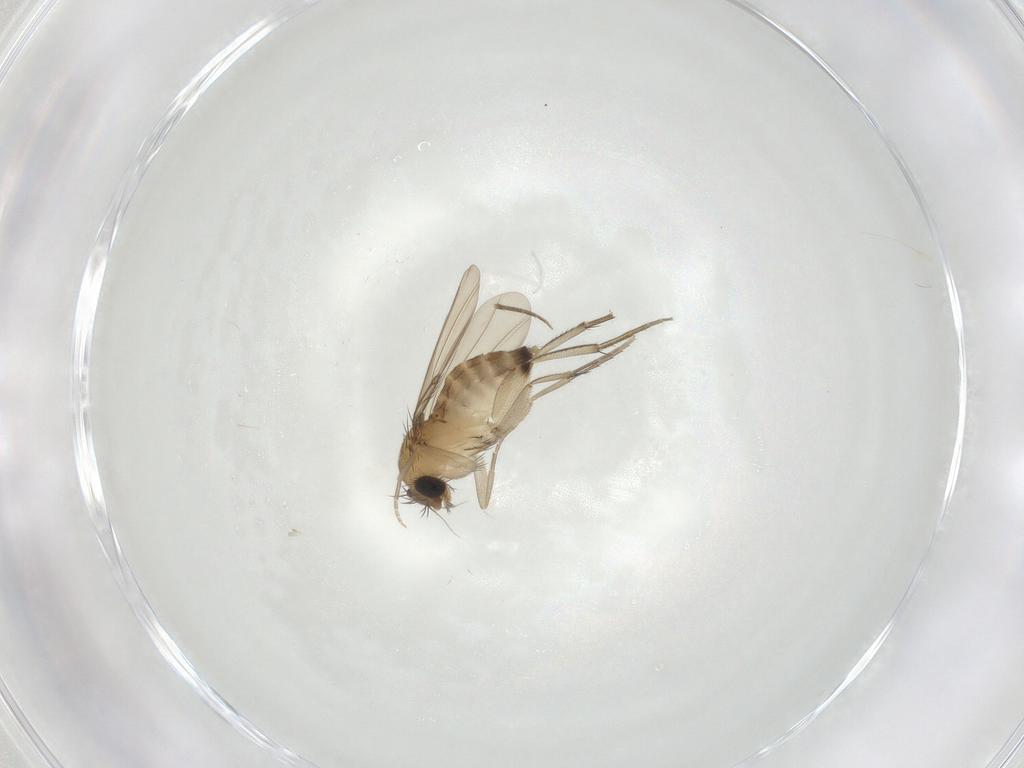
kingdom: Animalia
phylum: Arthropoda
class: Insecta
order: Diptera
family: Phoridae
